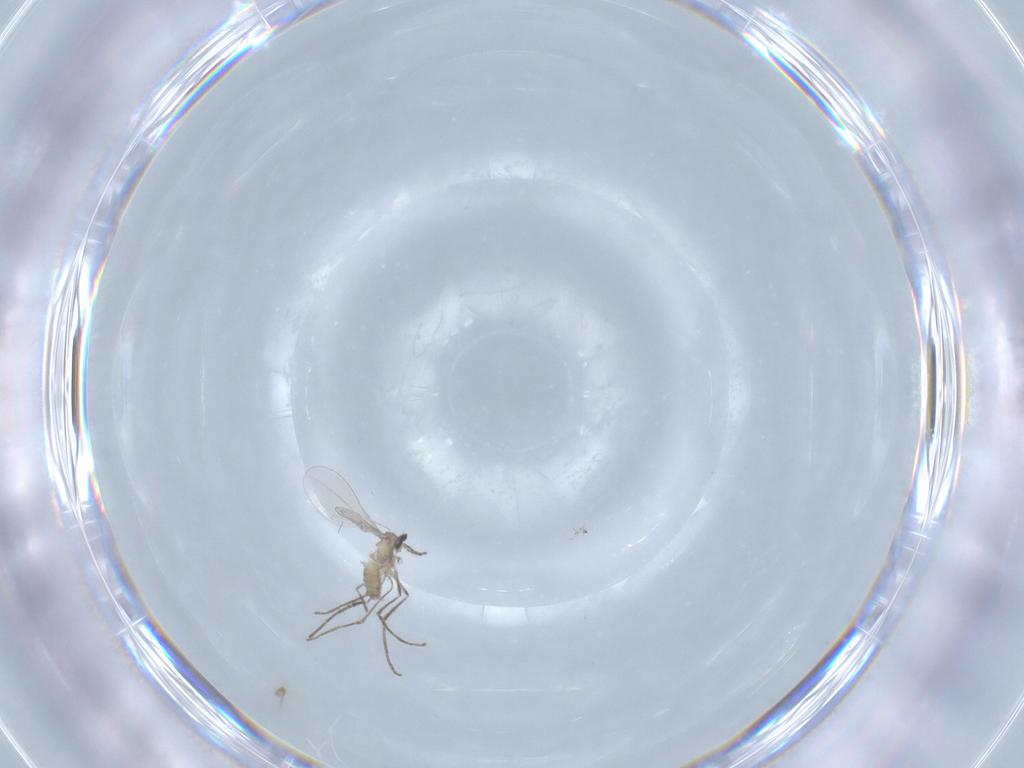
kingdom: Animalia
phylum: Arthropoda
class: Insecta
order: Diptera
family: Cecidomyiidae
